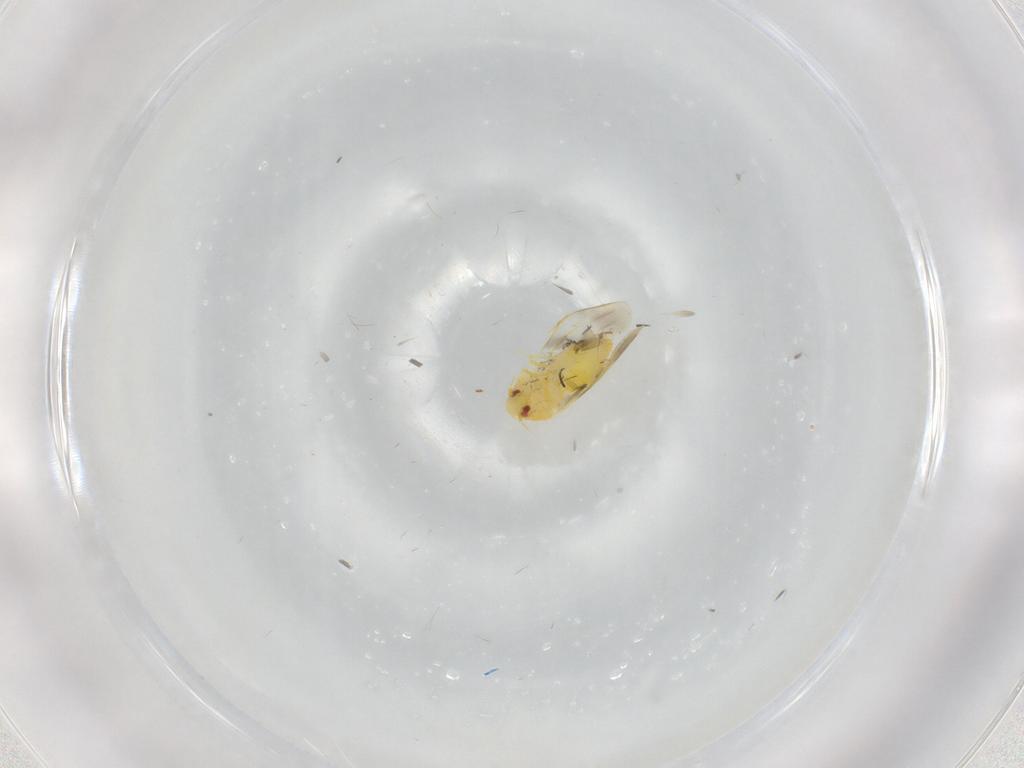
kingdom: Animalia
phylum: Arthropoda
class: Insecta
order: Hemiptera
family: Aleyrodidae
